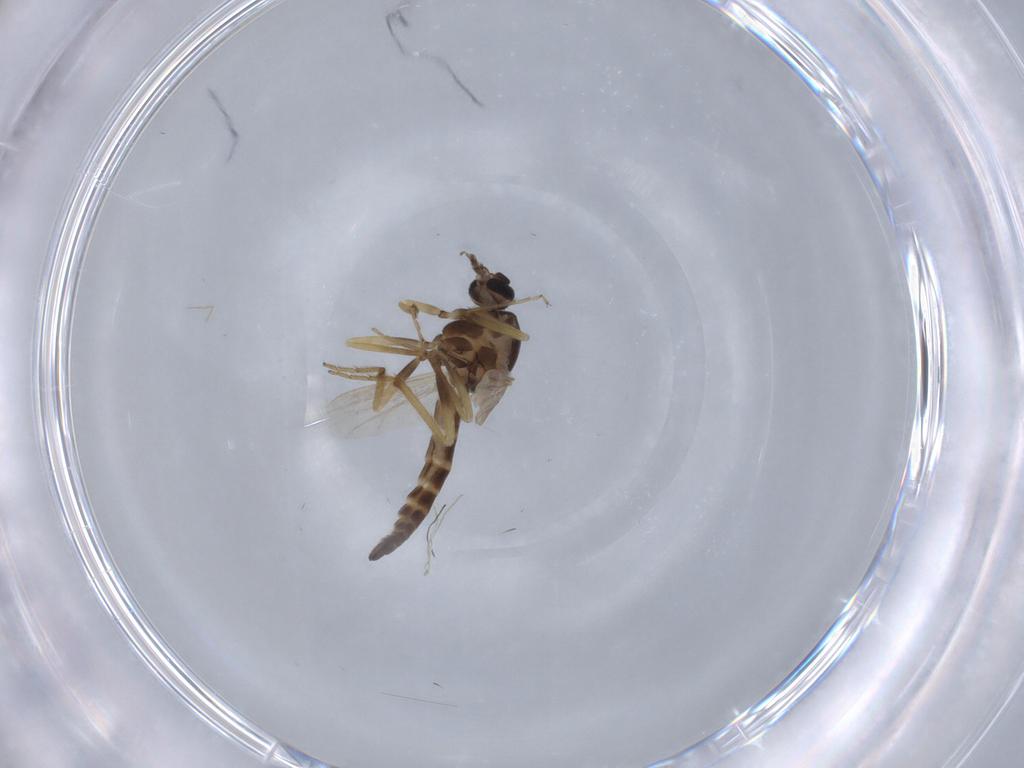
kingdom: Animalia
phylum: Arthropoda
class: Insecta
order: Diptera
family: Ceratopogonidae
